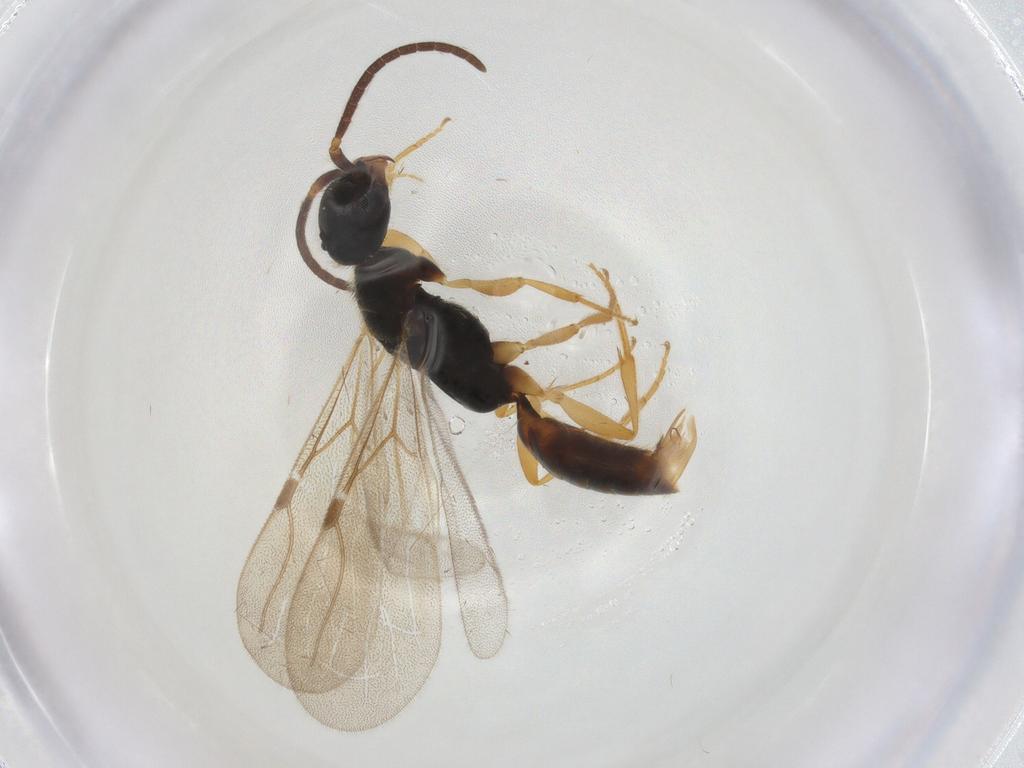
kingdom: Animalia
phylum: Arthropoda
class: Insecta
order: Hymenoptera
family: Bethylidae
